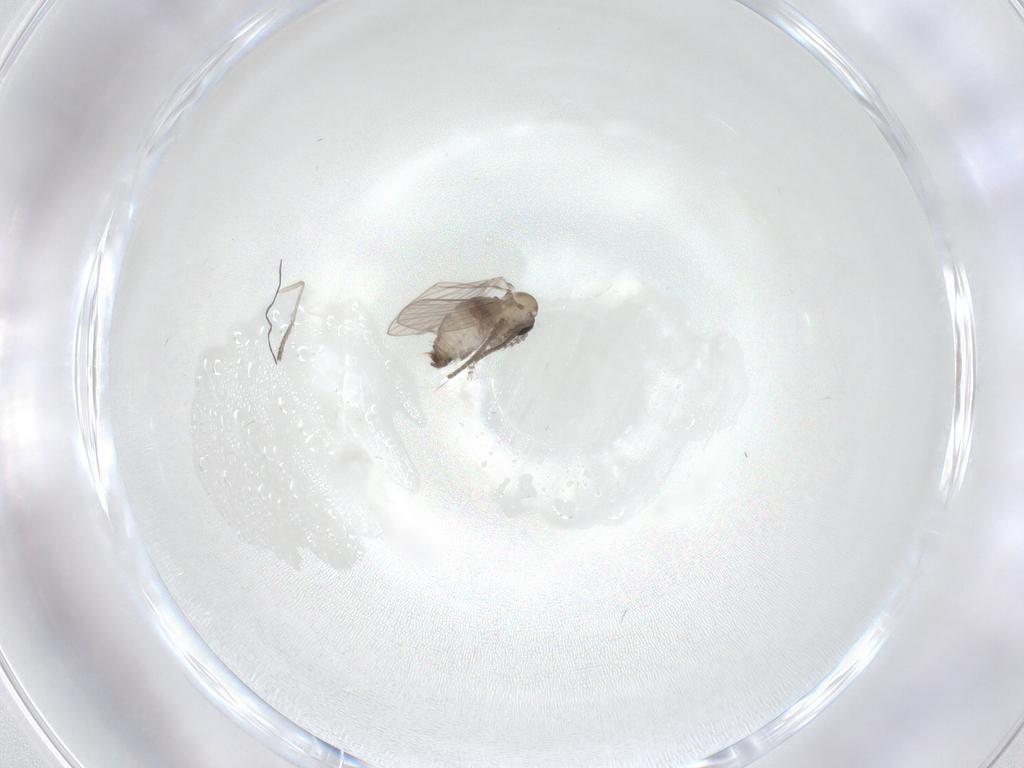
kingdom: Animalia
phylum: Arthropoda
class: Insecta
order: Diptera
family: Psychodidae
